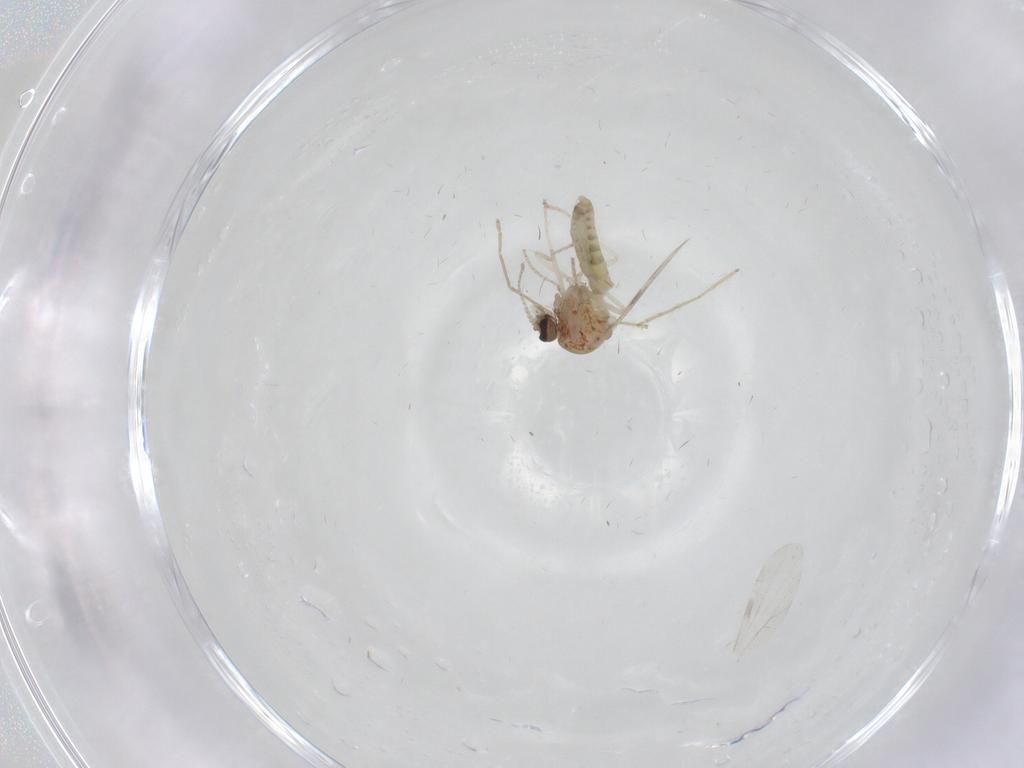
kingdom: Animalia
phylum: Arthropoda
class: Insecta
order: Diptera
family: Ceratopogonidae
